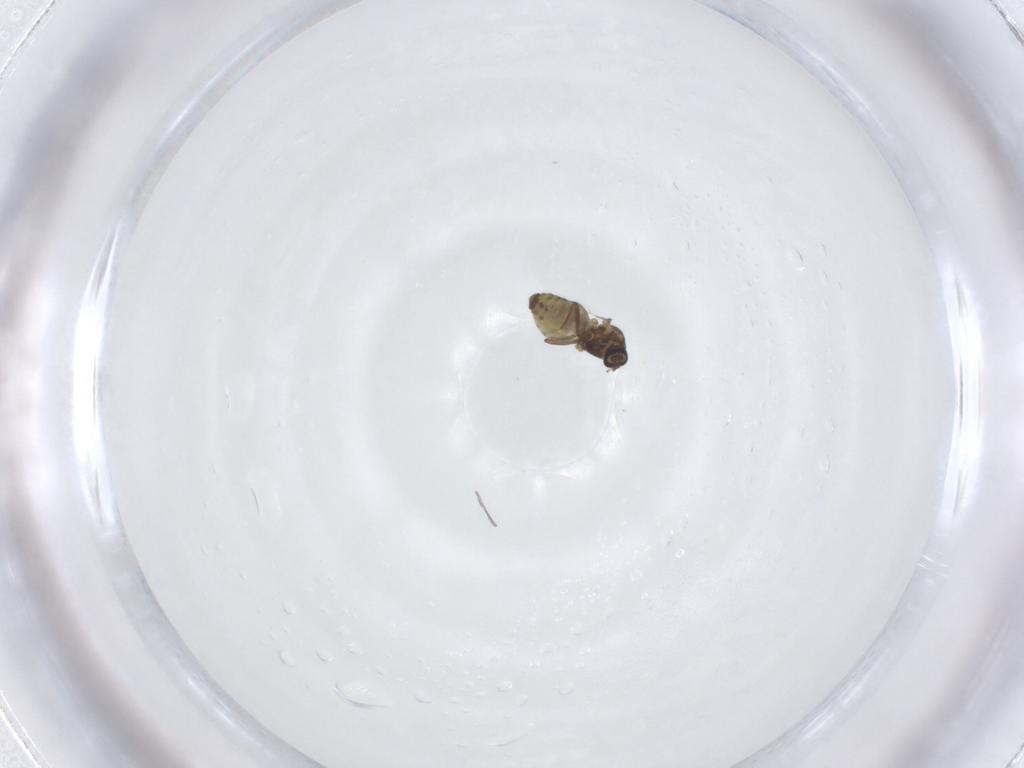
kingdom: Animalia
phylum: Arthropoda
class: Insecta
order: Diptera
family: Ceratopogonidae
